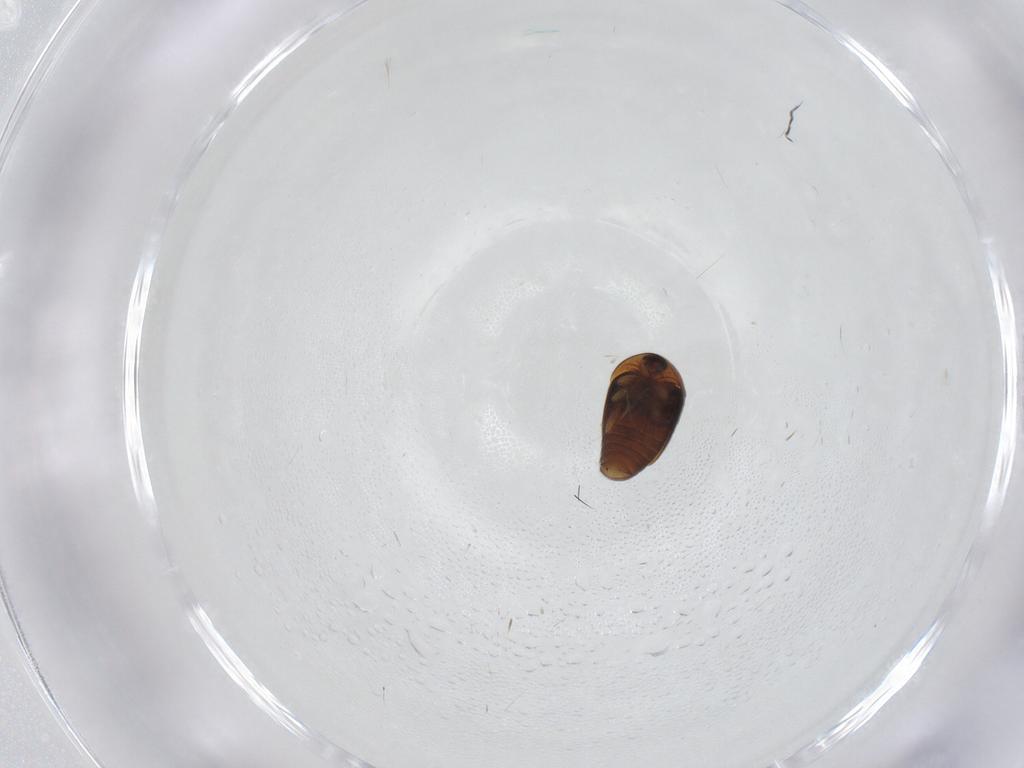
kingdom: Animalia
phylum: Arthropoda
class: Insecta
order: Coleoptera
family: Corylophidae
